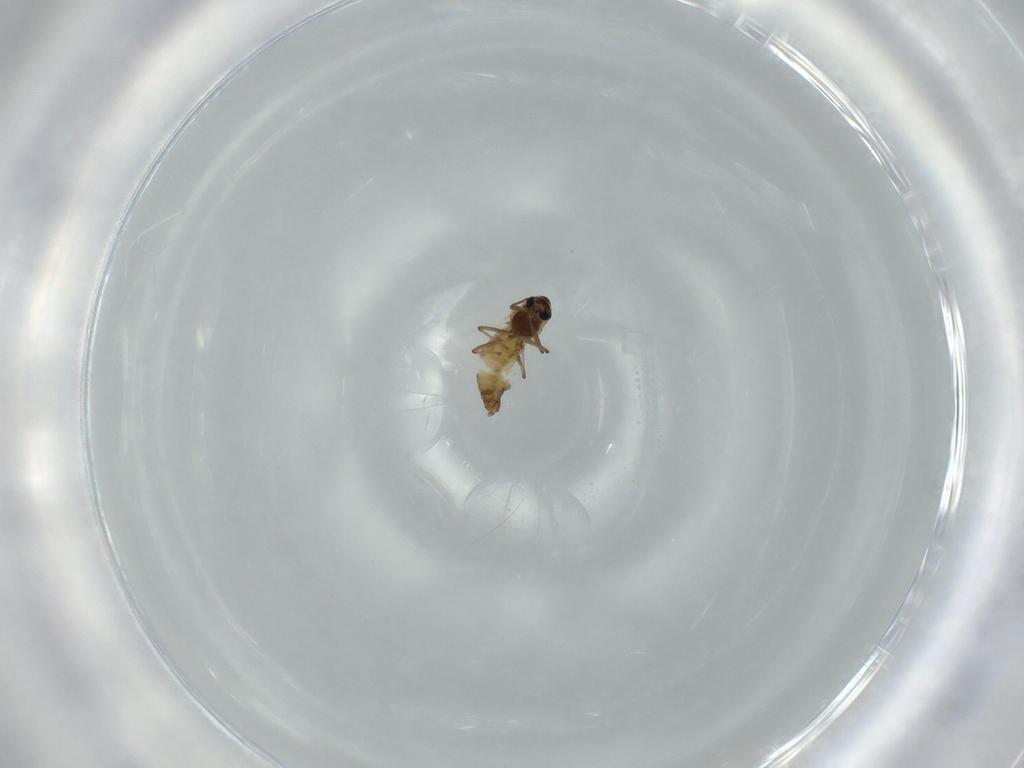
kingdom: Animalia
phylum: Arthropoda
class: Insecta
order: Diptera
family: Chironomidae
